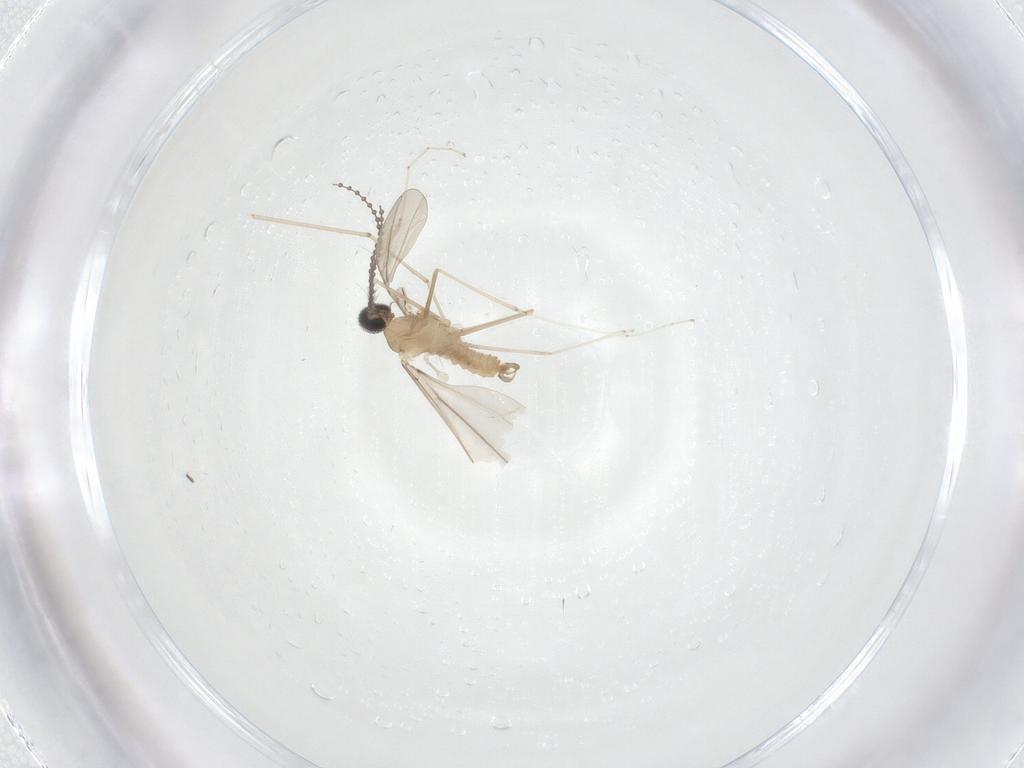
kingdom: Animalia
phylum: Arthropoda
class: Insecta
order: Diptera
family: Cecidomyiidae
